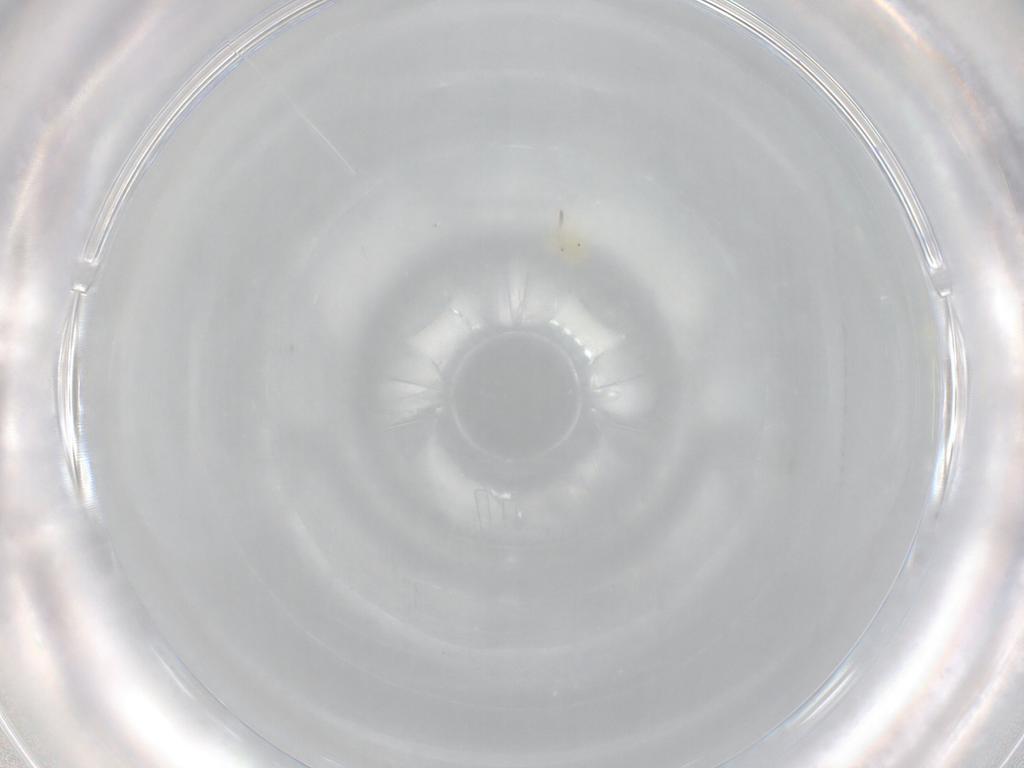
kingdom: Animalia
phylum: Arthropoda
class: Arachnida
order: Trombidiformes
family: Anystidae
